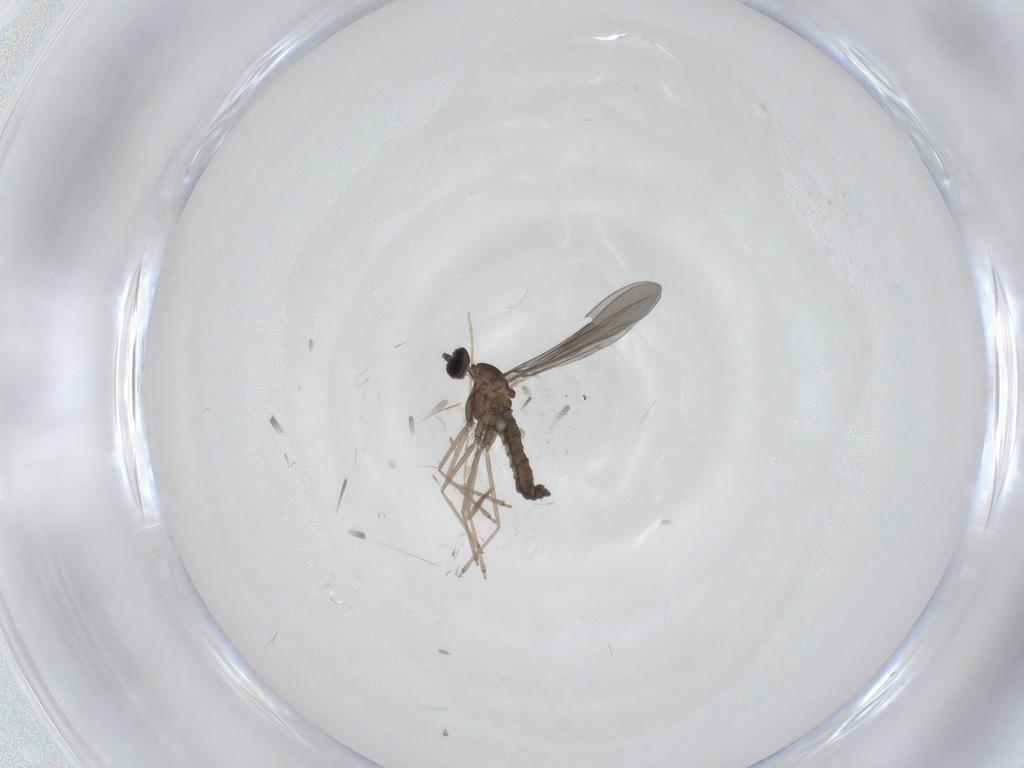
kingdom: Animalia
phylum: Arthropoda
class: Insecta
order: Diptera
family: Chironomidae
